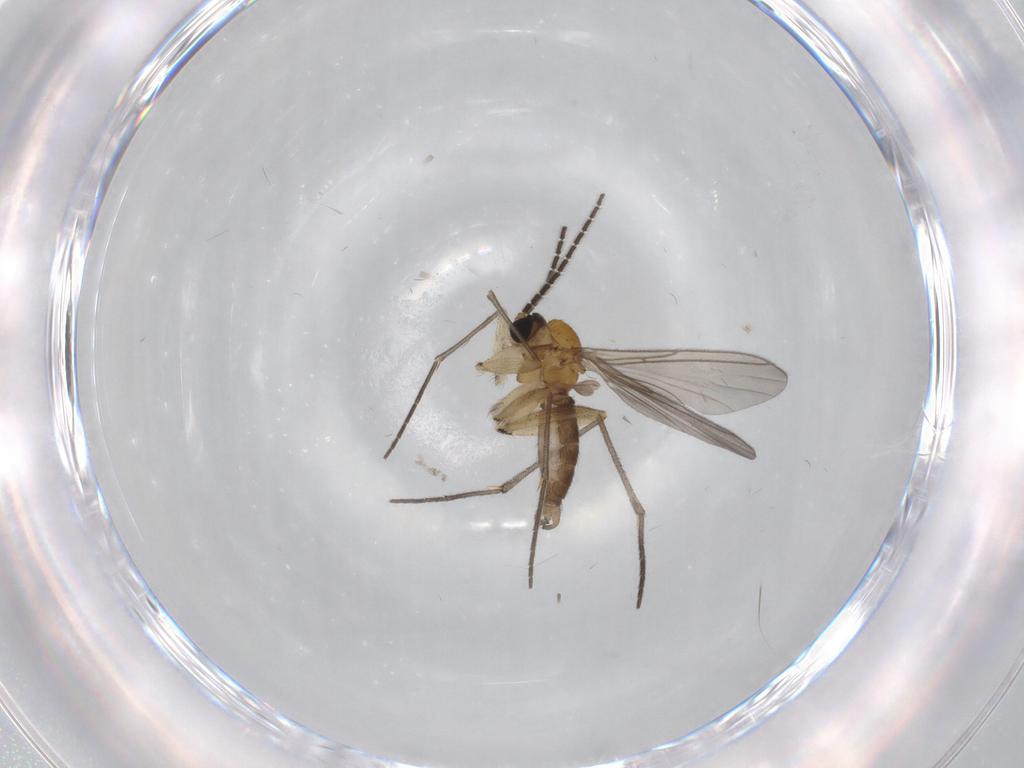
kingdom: Animalia
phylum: Arthropoda
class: Insecta
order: Diptera
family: Sciaridae
